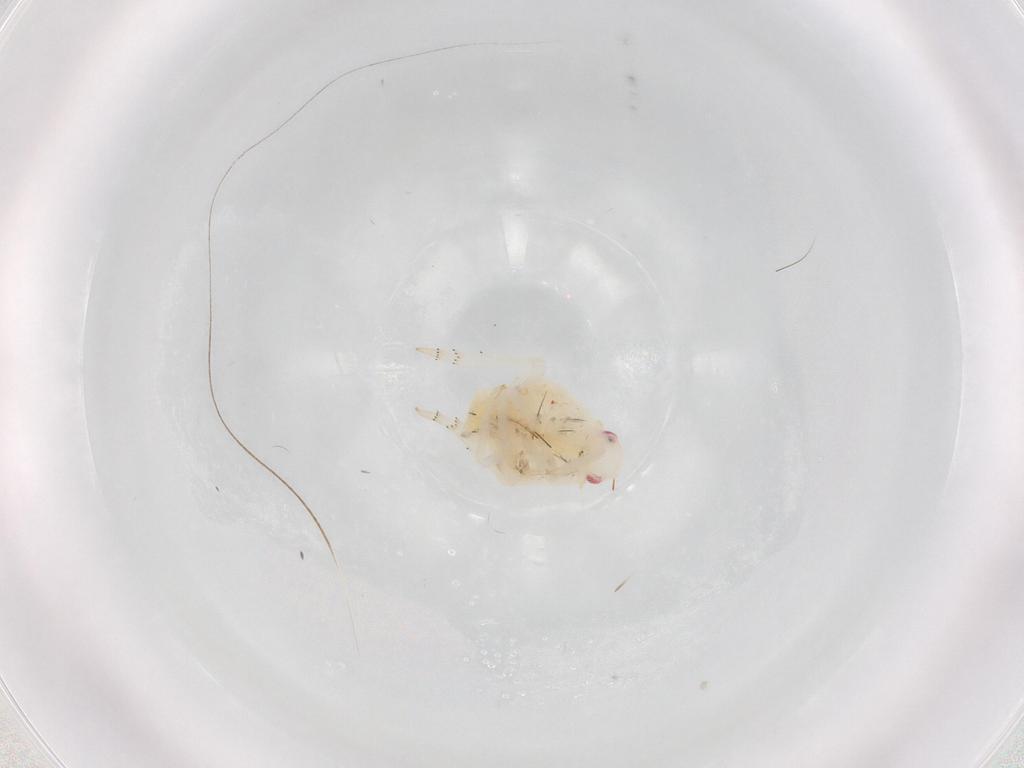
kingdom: Animalia
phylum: Arthropoda
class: Insecta
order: Hemiptera
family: Flatidae
